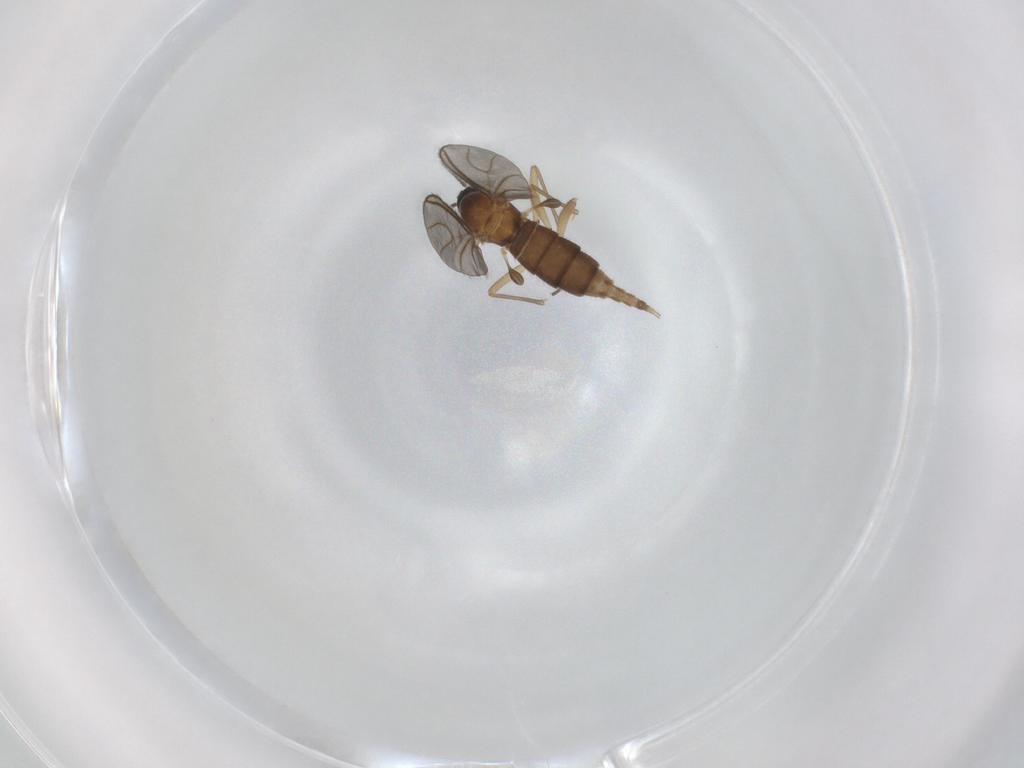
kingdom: Animalia
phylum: Arthropoda
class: Insecta
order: Diptera
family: Sciaridae
